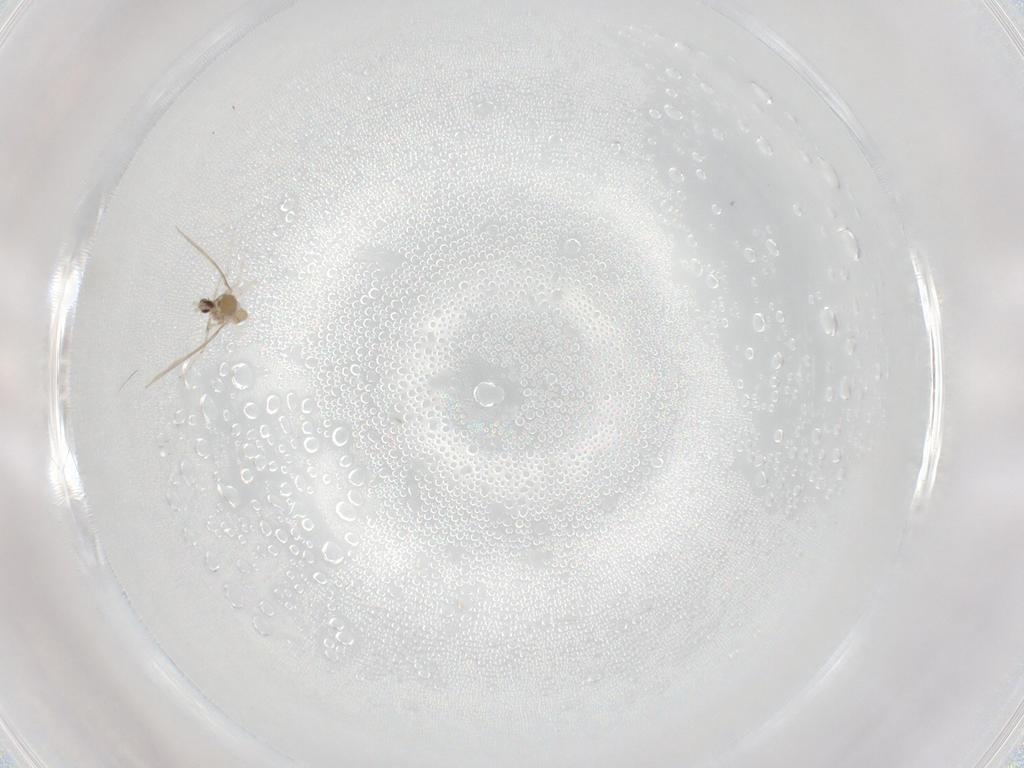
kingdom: Animalia
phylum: Arthropoda
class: Insecta
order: Diptera
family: Cecidomyiidae
